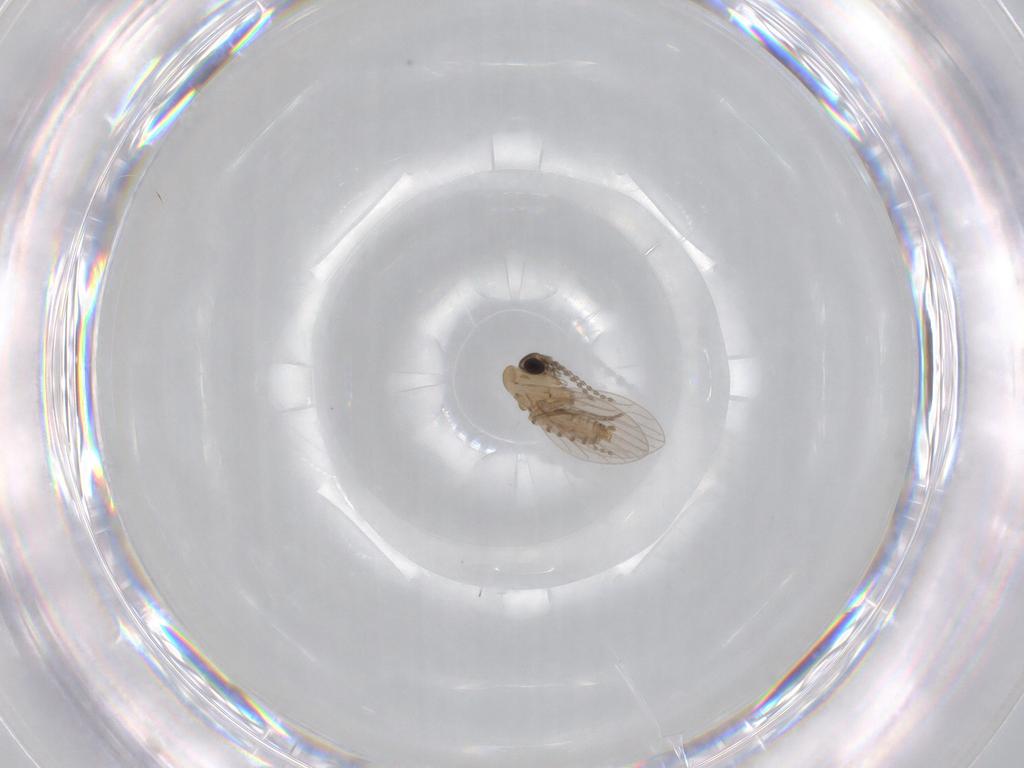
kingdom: Animalia
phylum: Arthropoda
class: Insecta
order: Diptera
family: Psychodidae
